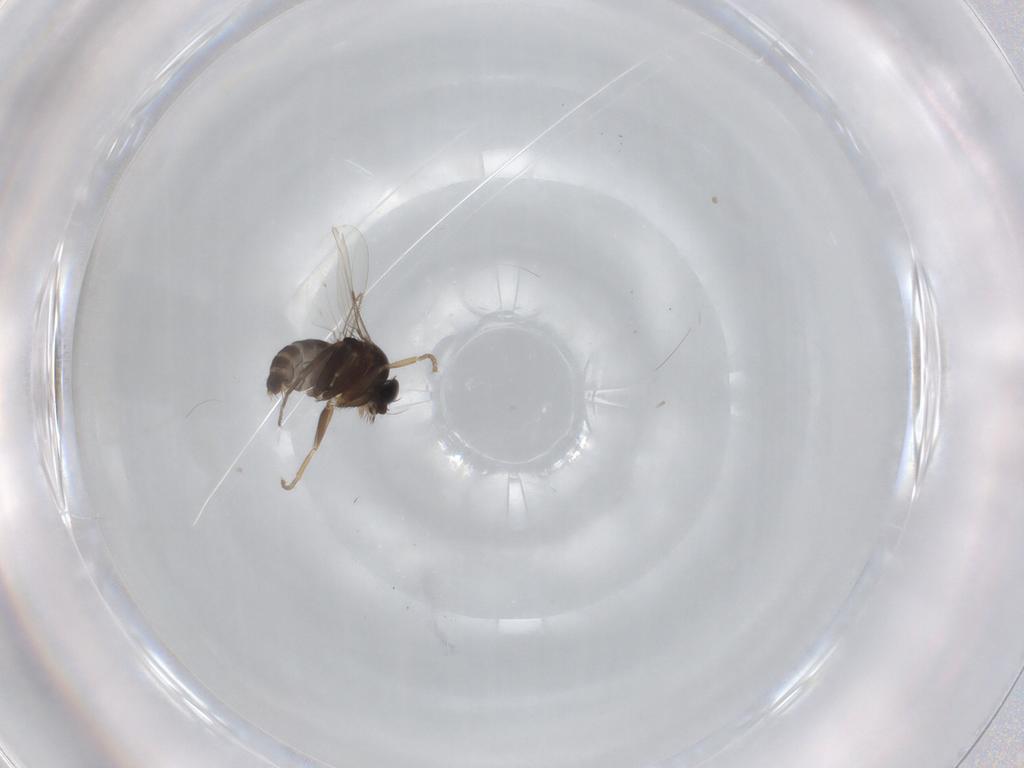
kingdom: Animalia
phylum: Arthropoda
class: Insecta
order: Diptera
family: Phoridae
